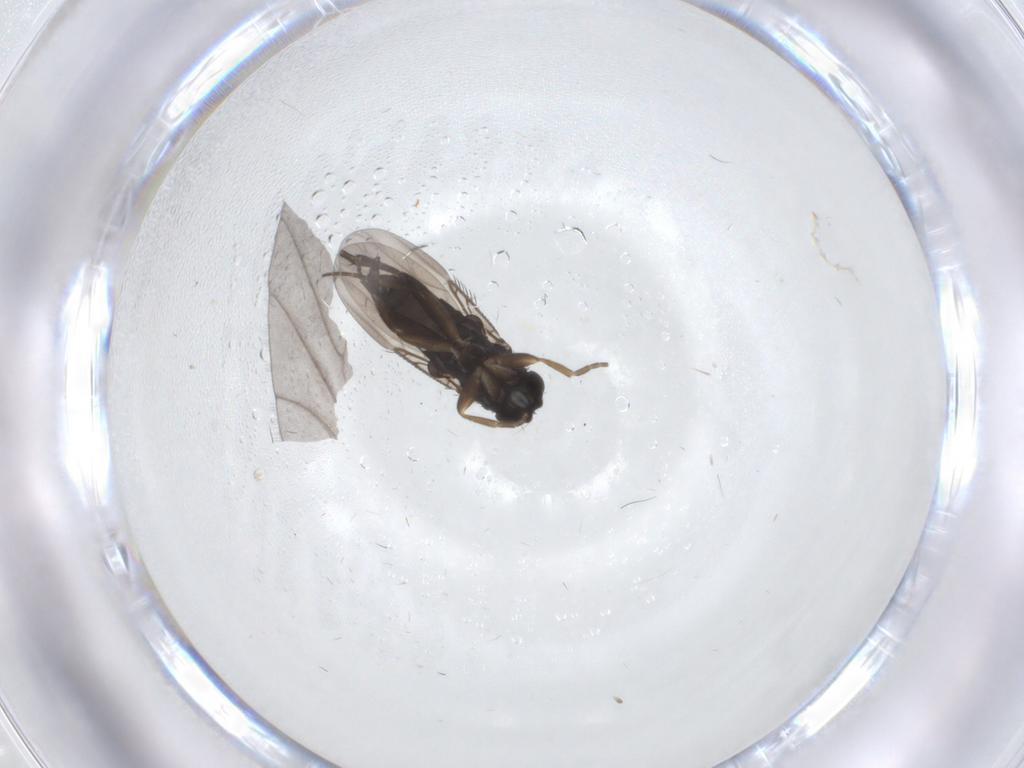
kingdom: Animalia
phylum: Arthropoda
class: Insecta
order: Diptera
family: Phoridae
